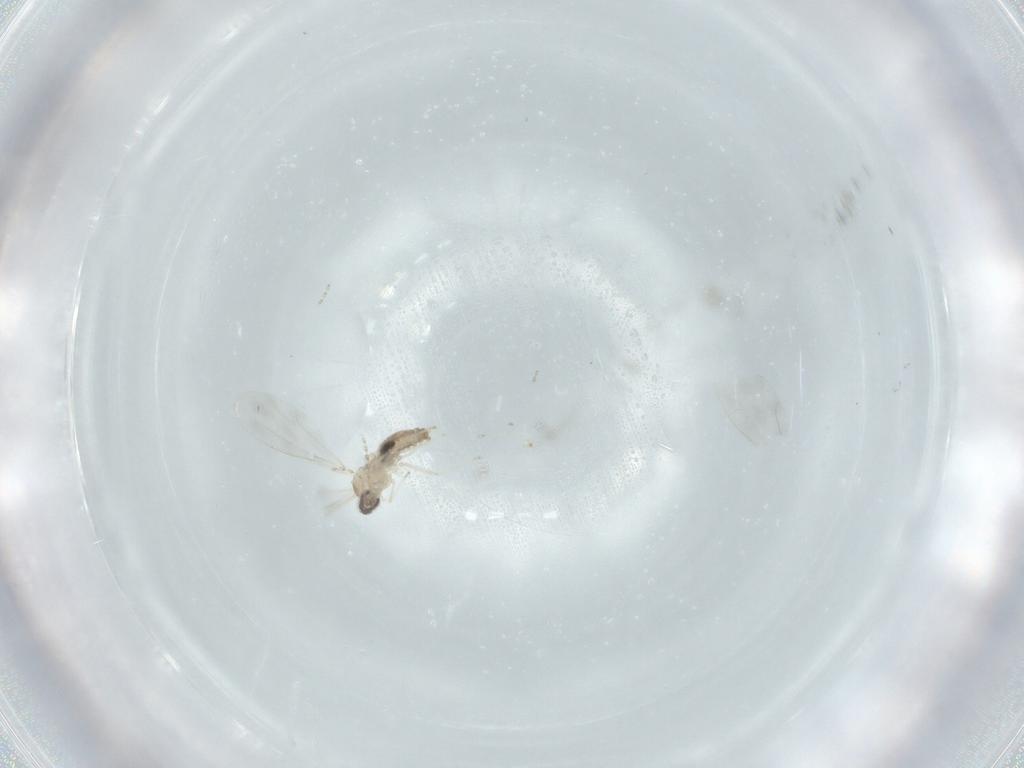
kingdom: Animalia
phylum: Arthropoda
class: Insecta
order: Diptera
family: Cecidomyiidae
